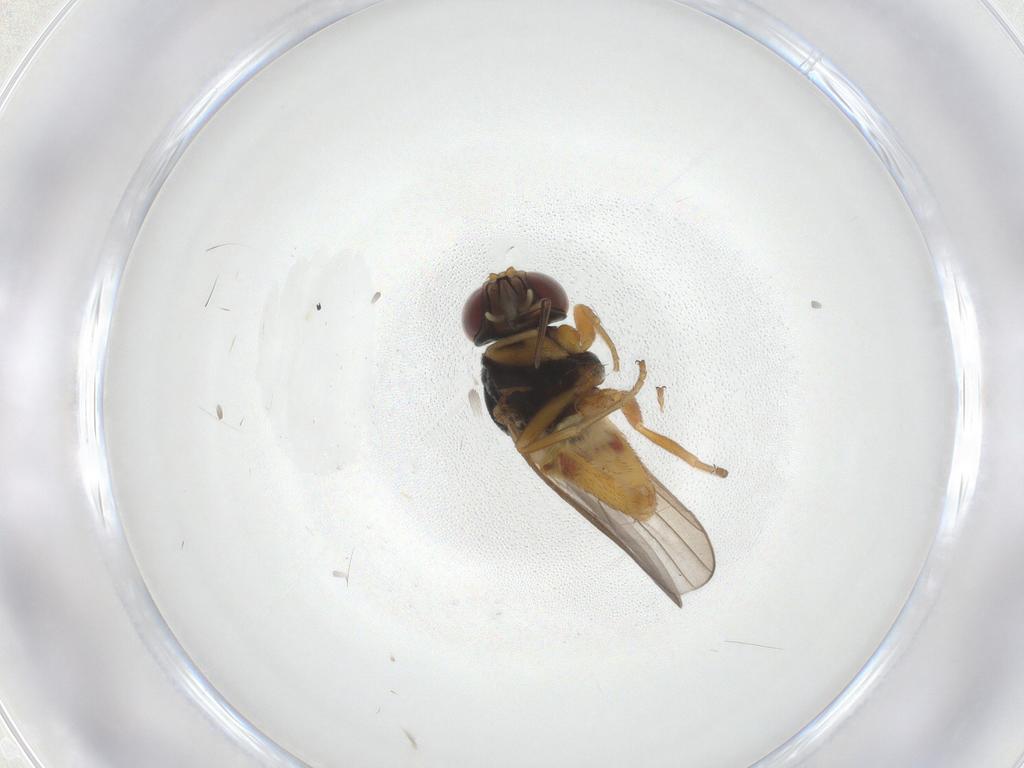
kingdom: Animalia
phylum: Arthropoda
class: Insecta
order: Diptera
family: Chloropidae
